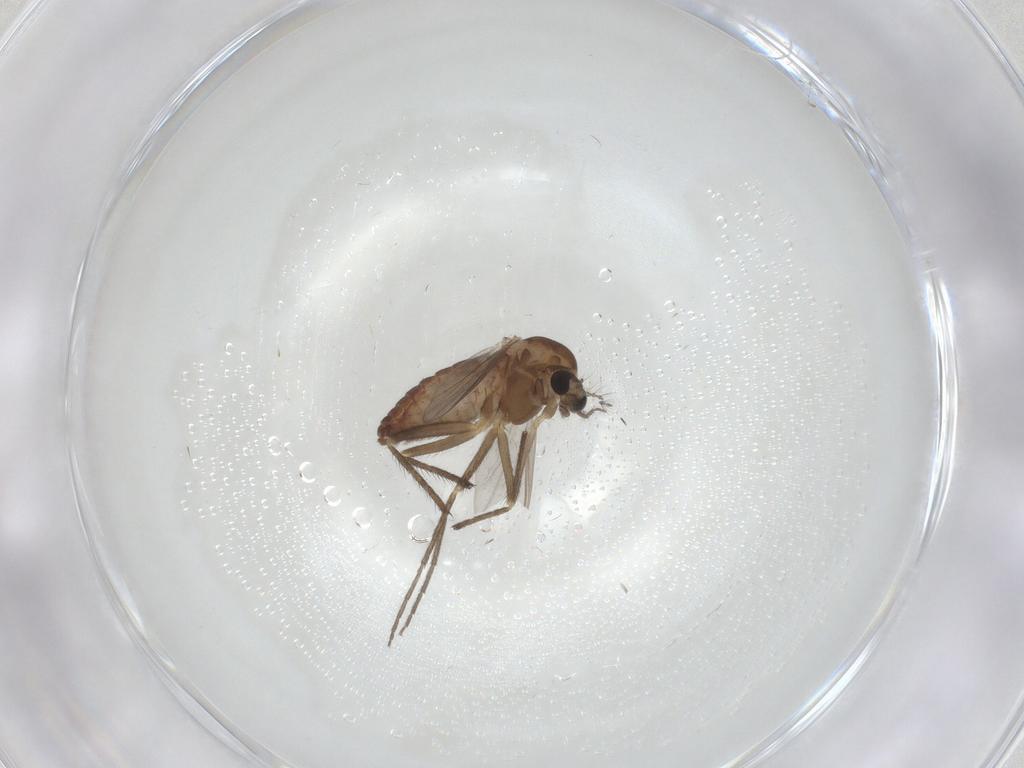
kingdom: Animalia
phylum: Arthropoda
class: Insecta
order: Diptera
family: Chironomidae
